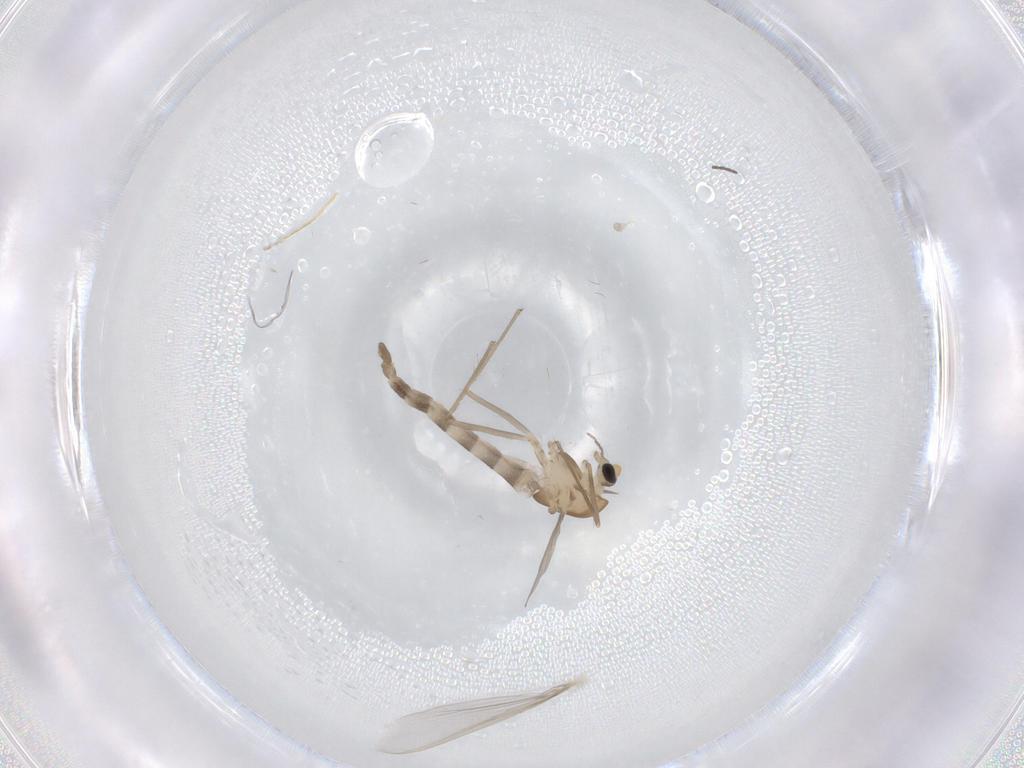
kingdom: Animalia
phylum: Arthropoda
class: Insecta
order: Diptera
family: Chironomidae
